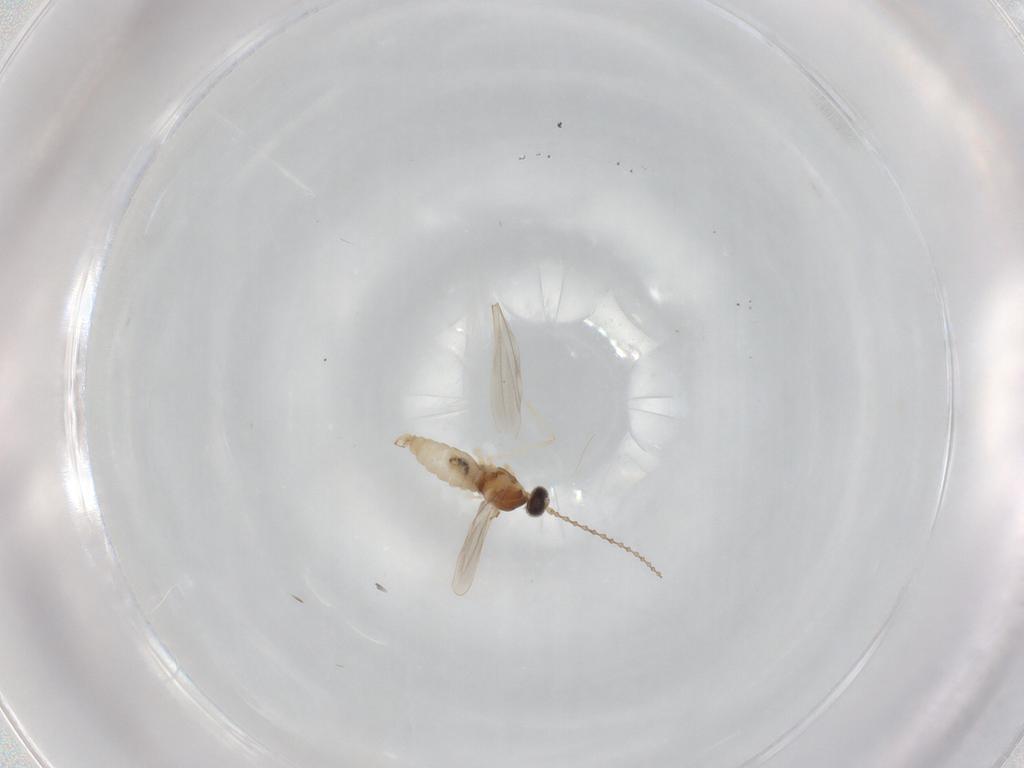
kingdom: Animalia
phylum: Arthropoda
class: Insecta
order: Diptera
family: Cecidomyiidae
